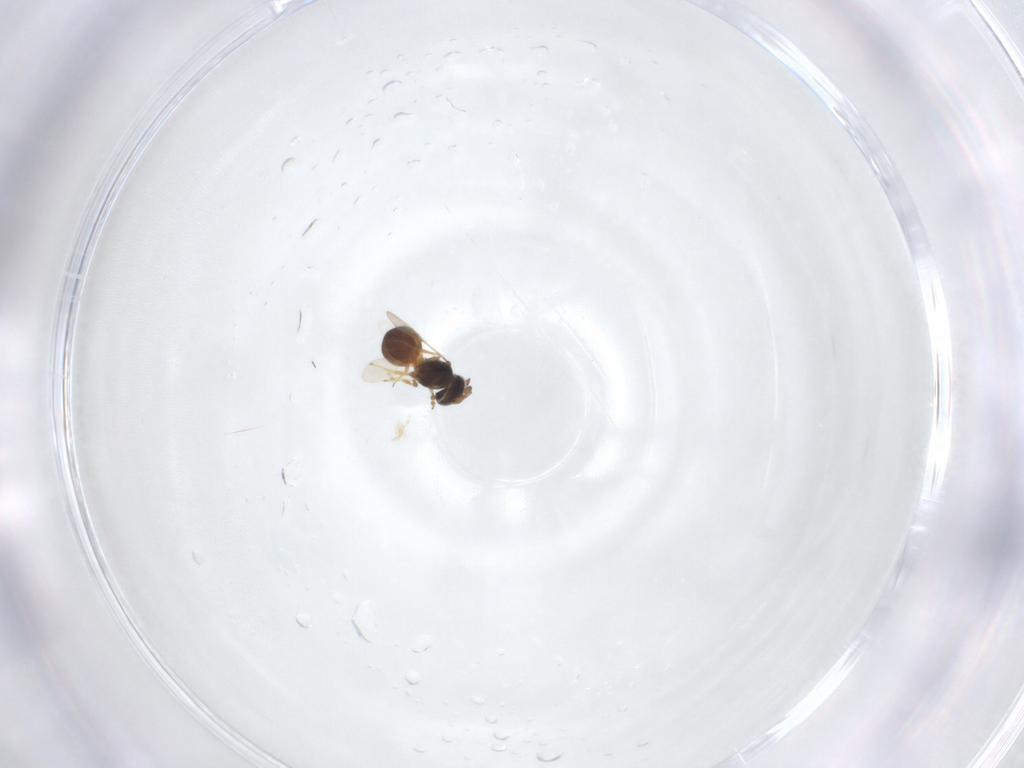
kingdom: Animalia
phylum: Arthropoda
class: Insecta
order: Hymenoptera
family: Scelionidae
